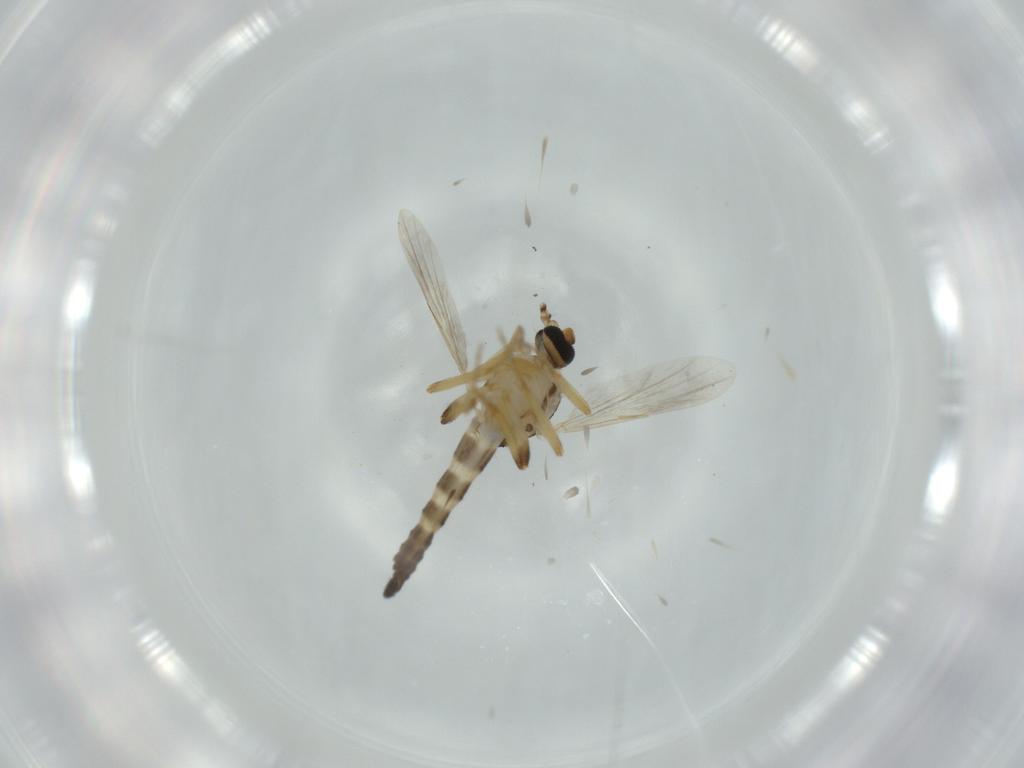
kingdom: Animalia
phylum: Arthropoda
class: Insecta
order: Diptera
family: Ceratopogonidae
